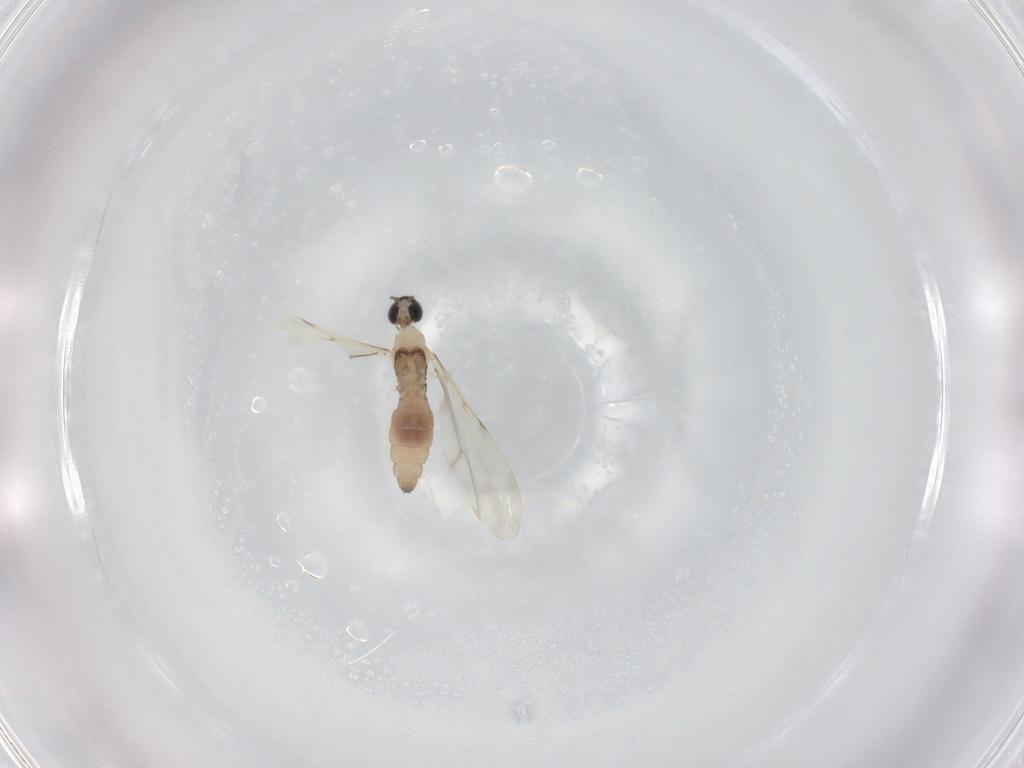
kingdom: Animalia
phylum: Arthropoda
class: Insecta
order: Diptera
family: Cecidomyiidae
